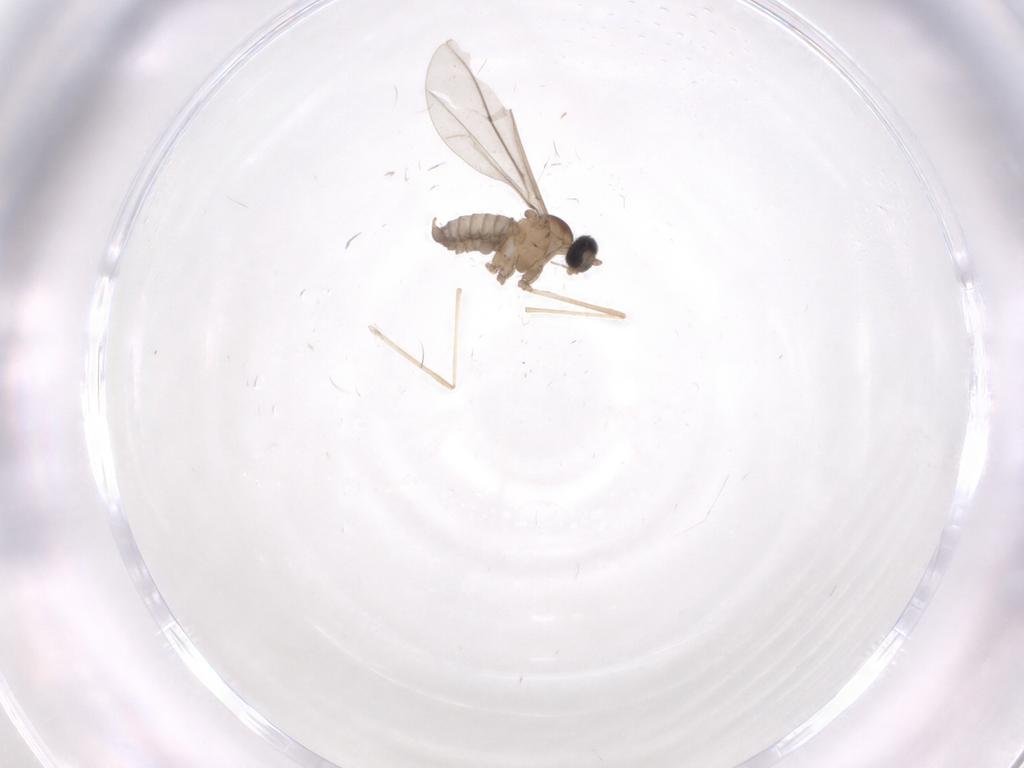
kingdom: Animalia
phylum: Arthropoda
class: Insecta
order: Diptera
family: Cecidomyiidae
